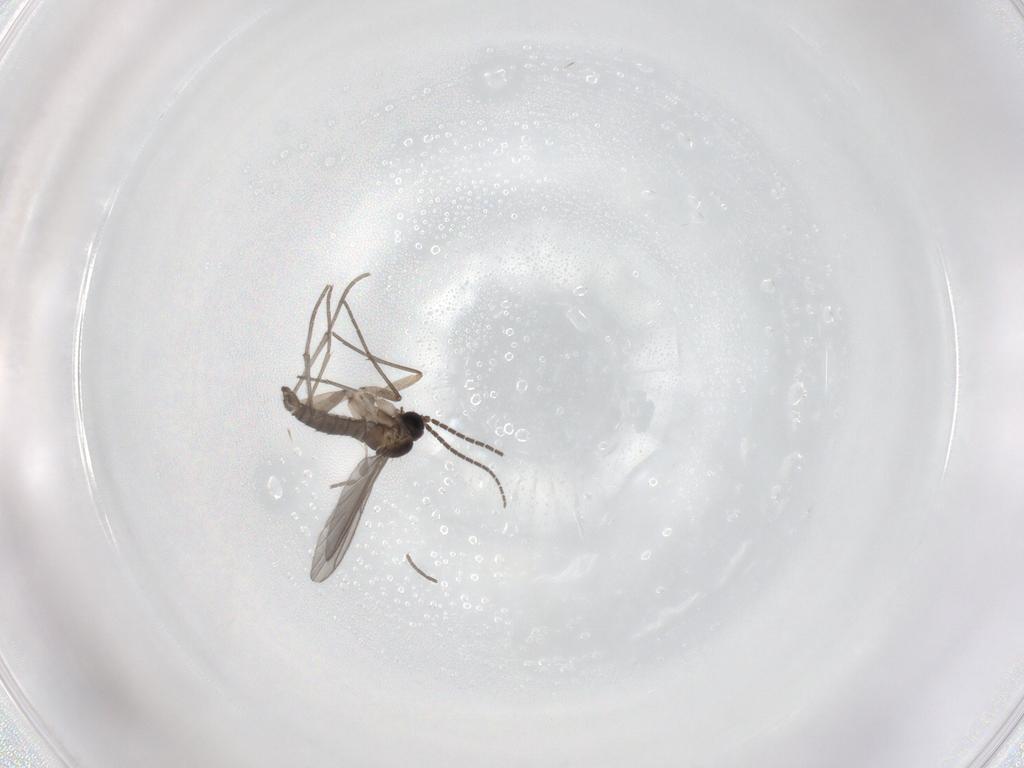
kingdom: Animalia
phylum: Arthropoda
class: Insecta
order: Diptera
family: Sciaridae
